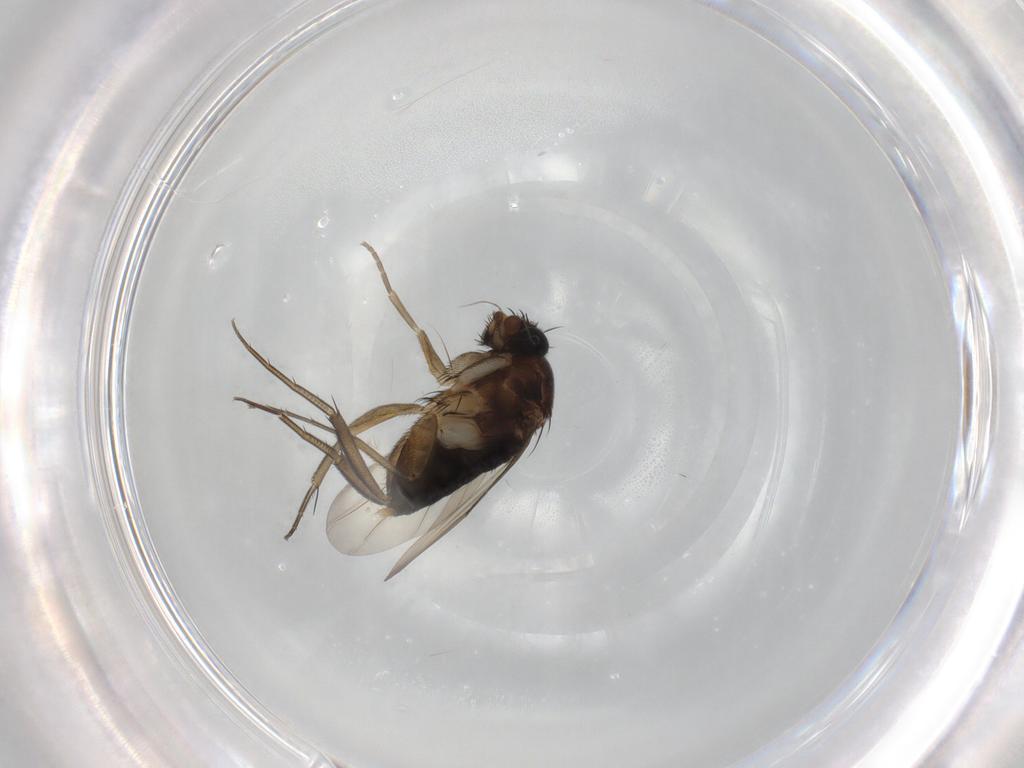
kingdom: Animalia
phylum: Arthropoda
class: Insecta
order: Diptera
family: Phoridae
